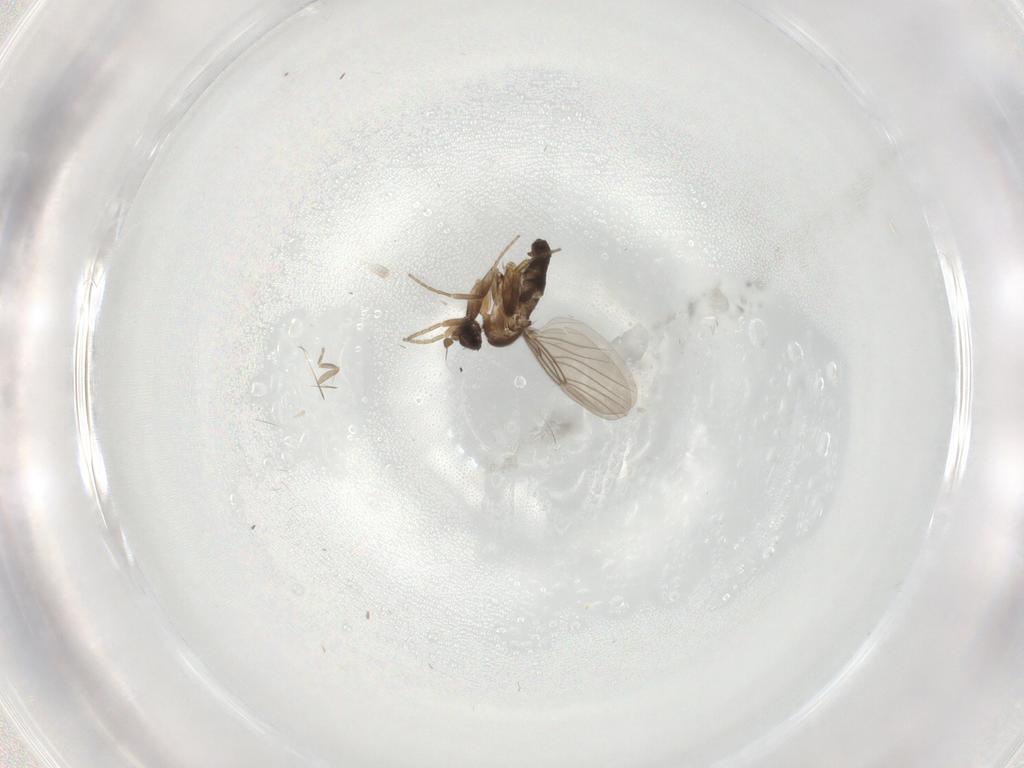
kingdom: Animalia
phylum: Arthropoda
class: Insecta
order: Diptera
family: Phoridae
